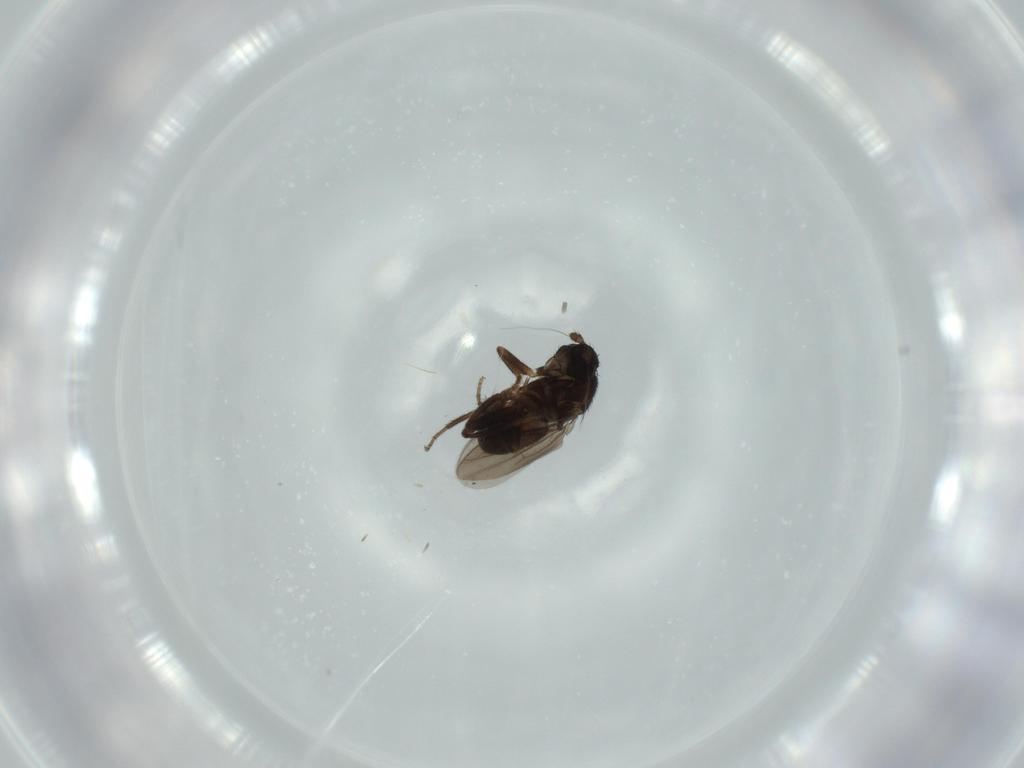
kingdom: Animalia
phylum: Arthropoda
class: Insecta
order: Diptera
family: Sphaeroceridae
